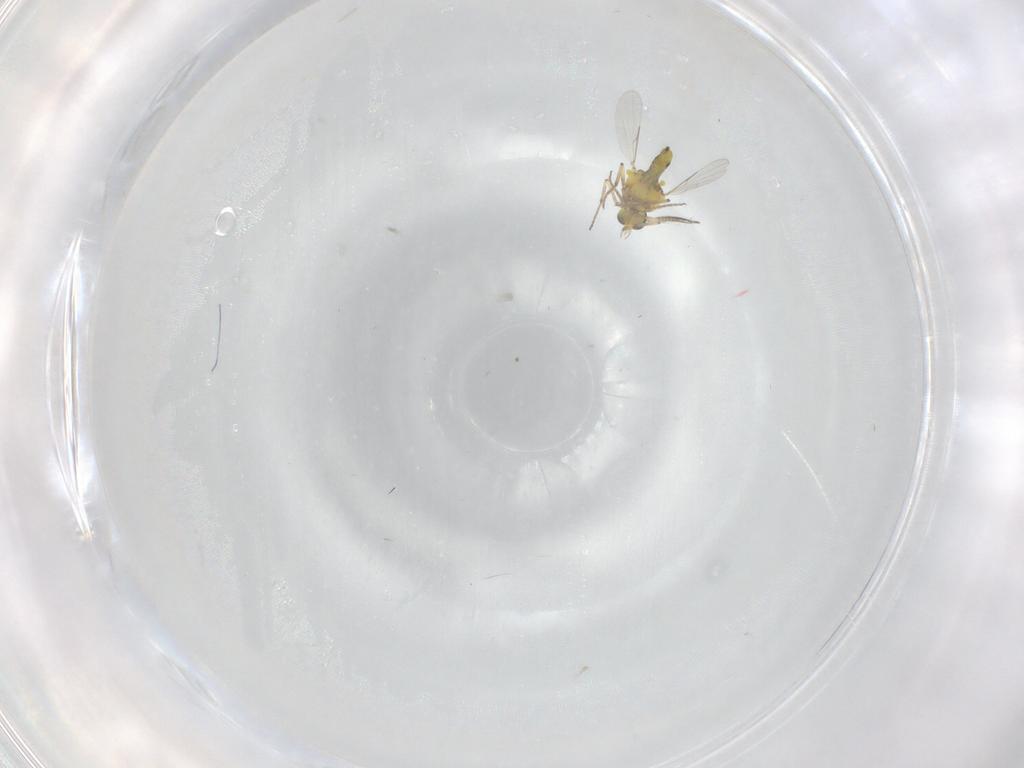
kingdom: Animalia
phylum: Arthropoda
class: Insecta
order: Diptera
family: Ceratopogonidae
